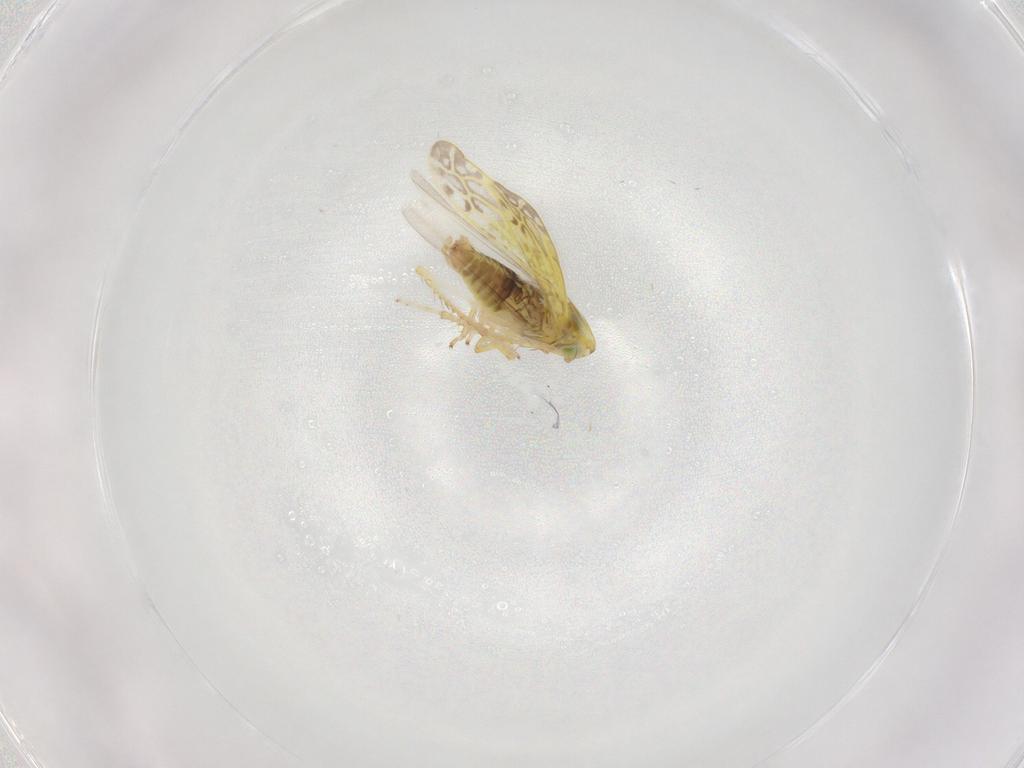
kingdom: Animalia
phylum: Arthropoda
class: Insecta
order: Hemiptera
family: Cicadellidae
